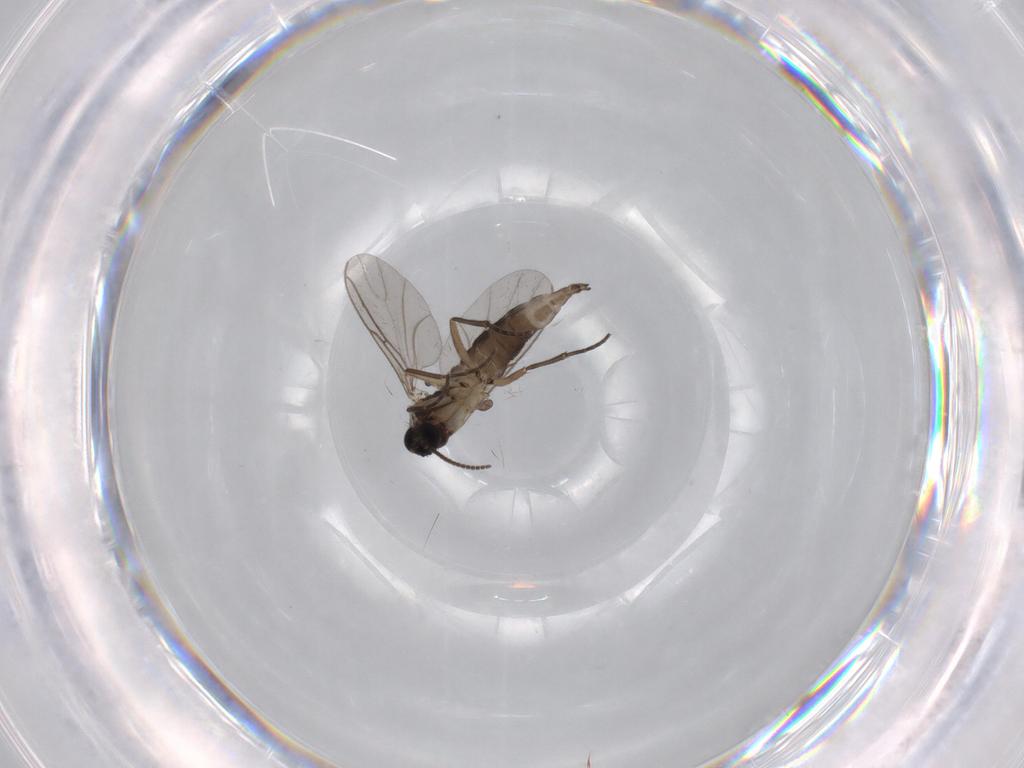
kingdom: Animalia
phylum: Arthropoda
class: Insecta
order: Diptera
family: Sciaridae
